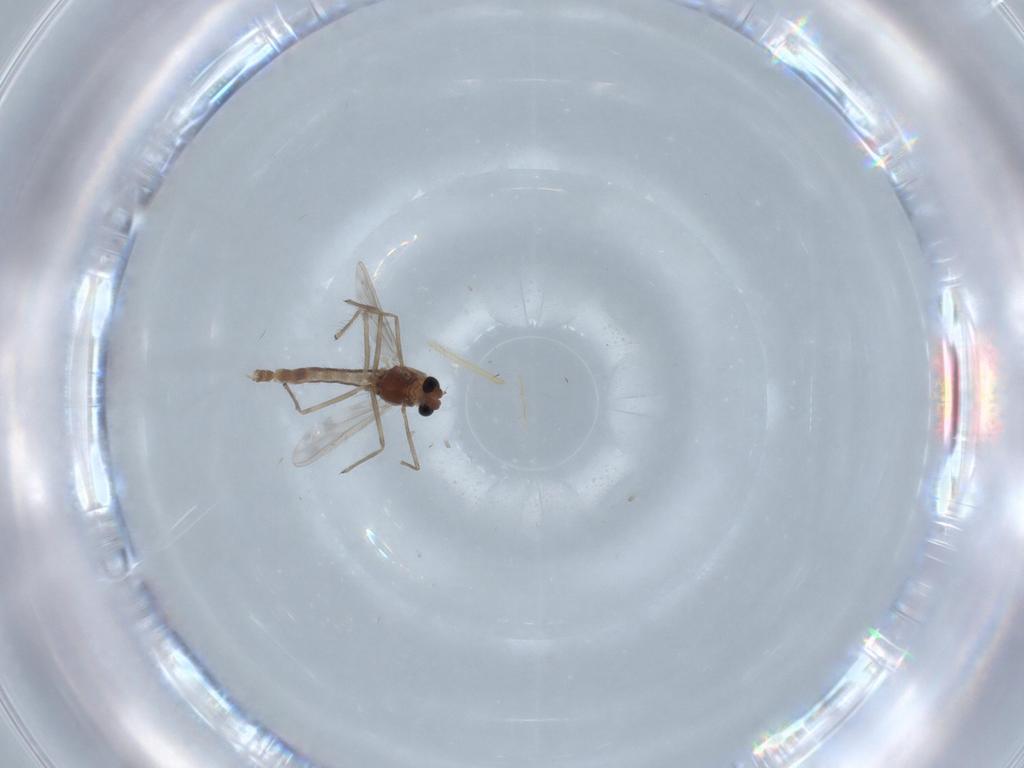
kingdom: Animalia
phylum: Arthropoda
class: Insecta
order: Diptera
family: Chironomidae
